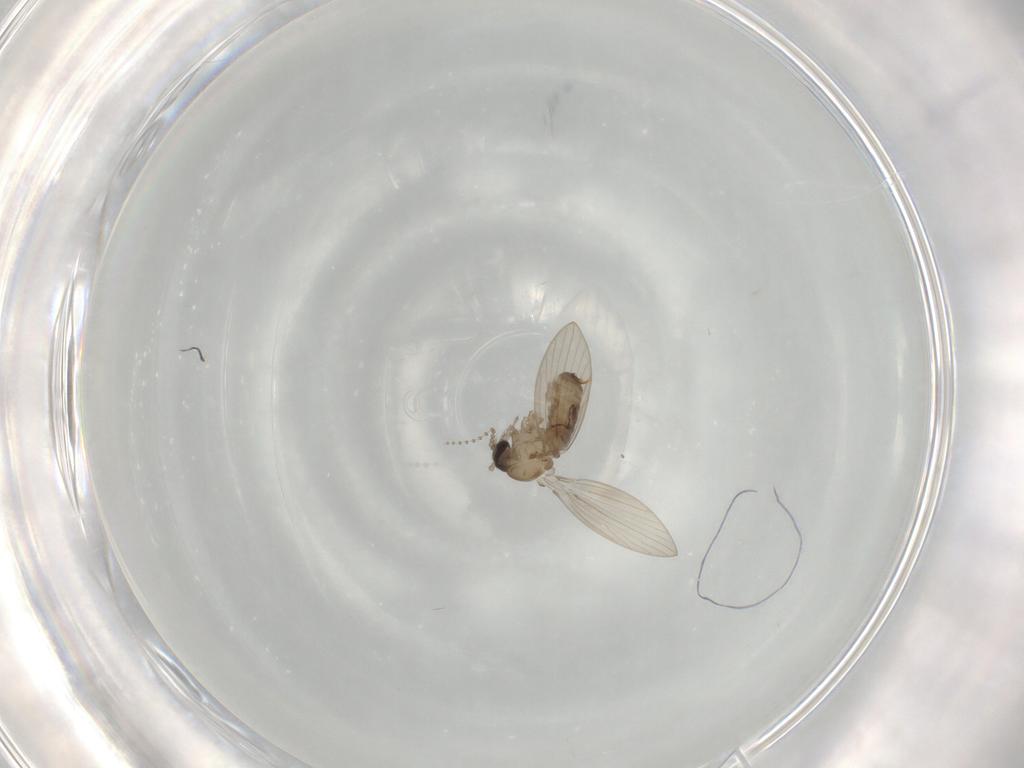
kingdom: Animalia
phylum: Arthropoda
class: Insecta
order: Diptera
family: Psychodidae
